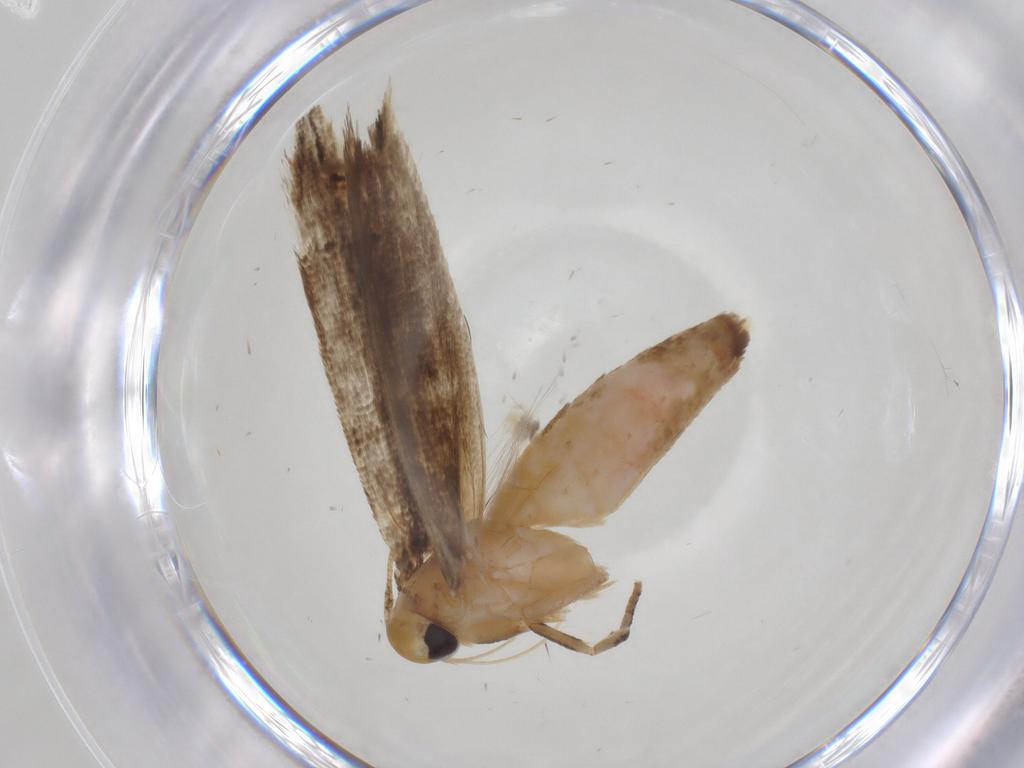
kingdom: Animalia
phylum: Arthropoda
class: Insecta
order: Lepidoptera
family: Momphidae
